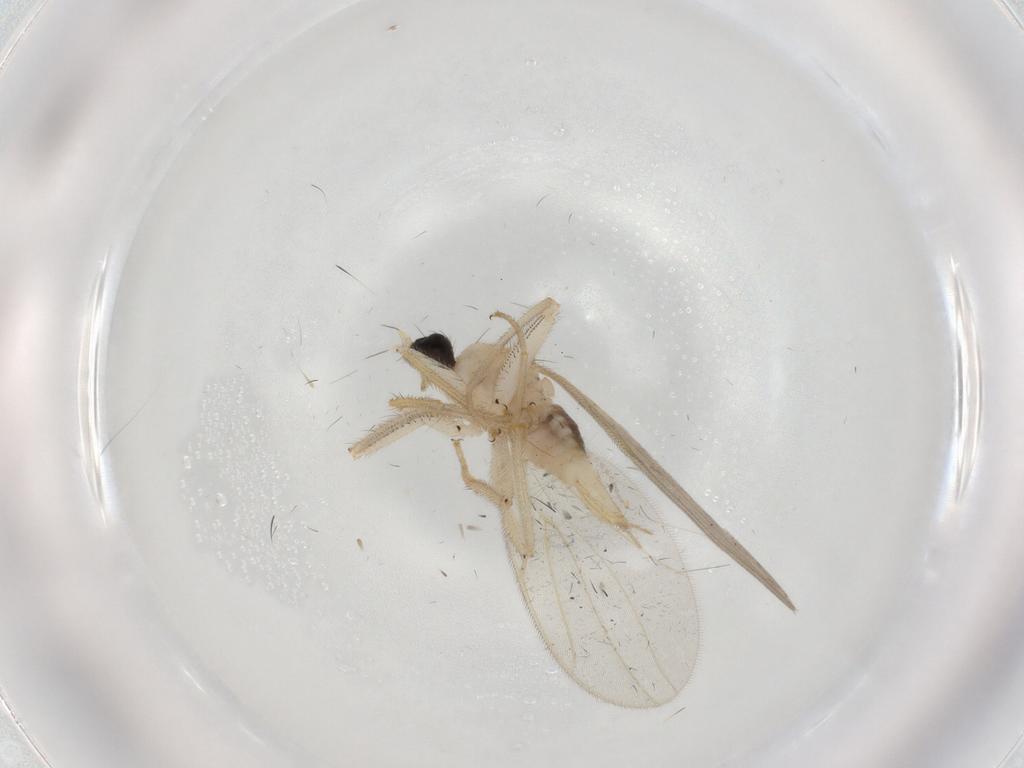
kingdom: Animalia
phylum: Arthropoda
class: Insecta
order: Diptera
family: Hybotidae
